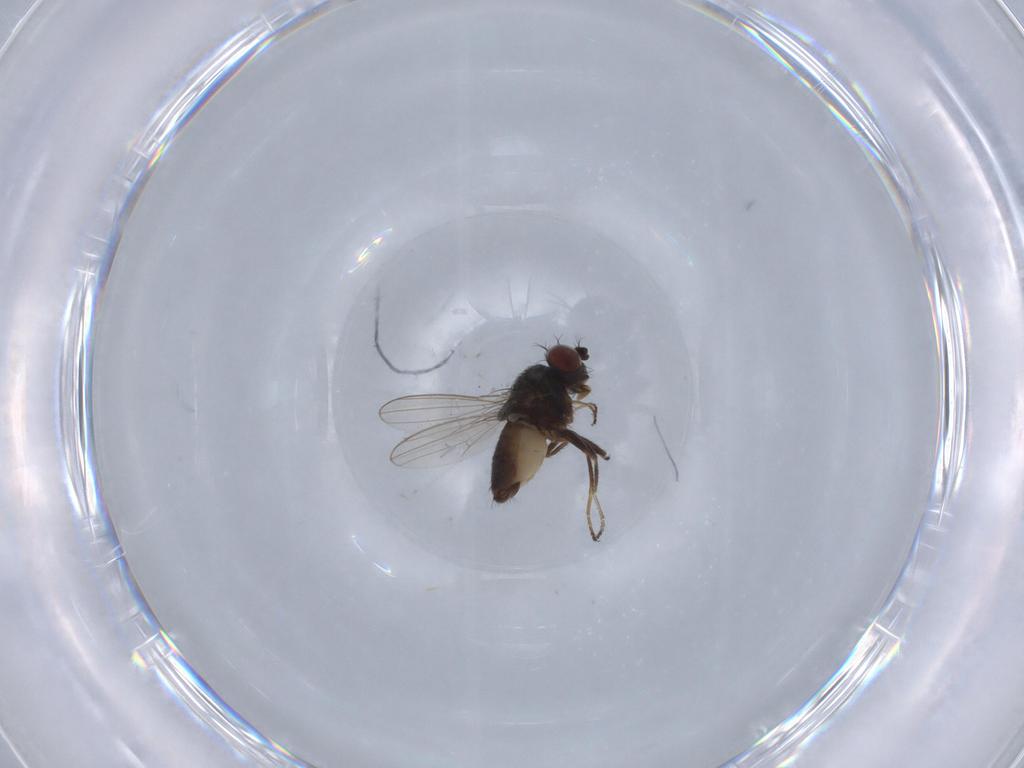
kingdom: Animalia
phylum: Arthropoda
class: Insecta
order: Diptera
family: Ephydridae
